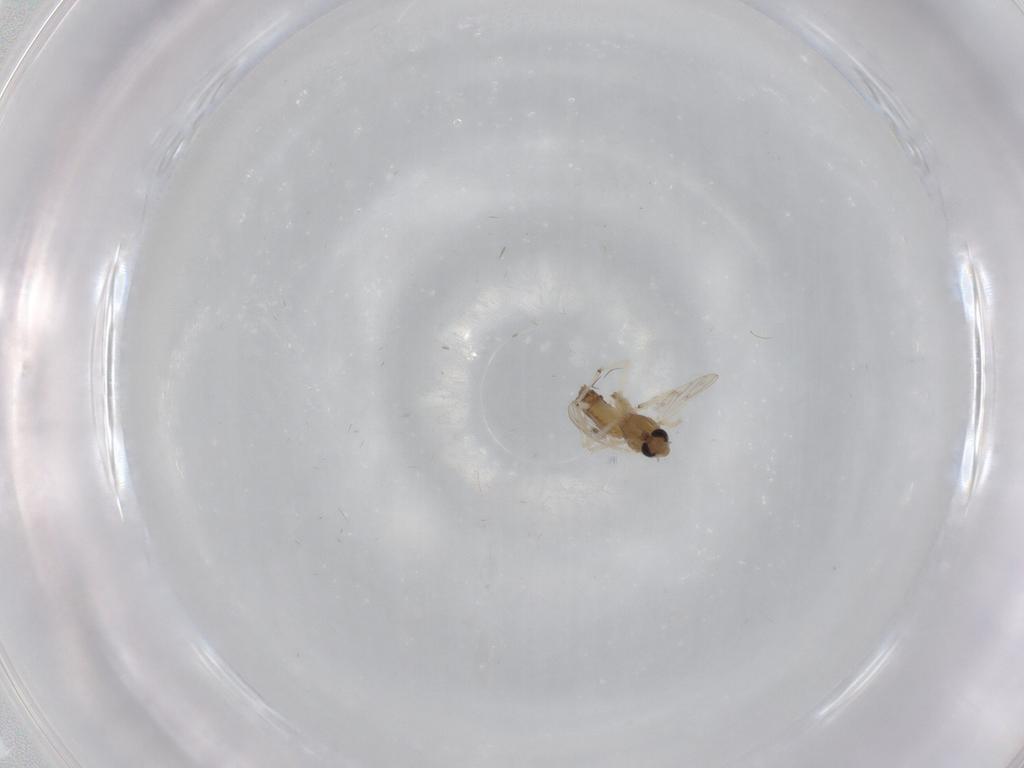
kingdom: Animalia
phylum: Arthropoda
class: Insecta
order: Diptera
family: Chironomidae
